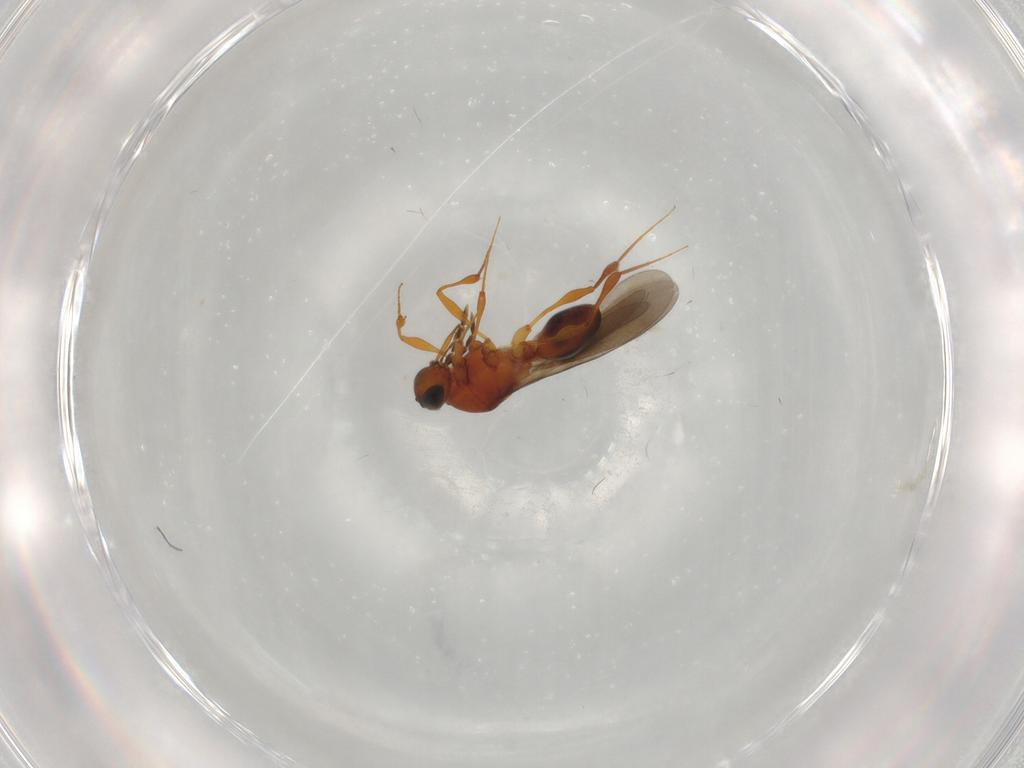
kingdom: Animalia
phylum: Arthropoda
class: Insecta
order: Hymenoptera
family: Platygastridae
